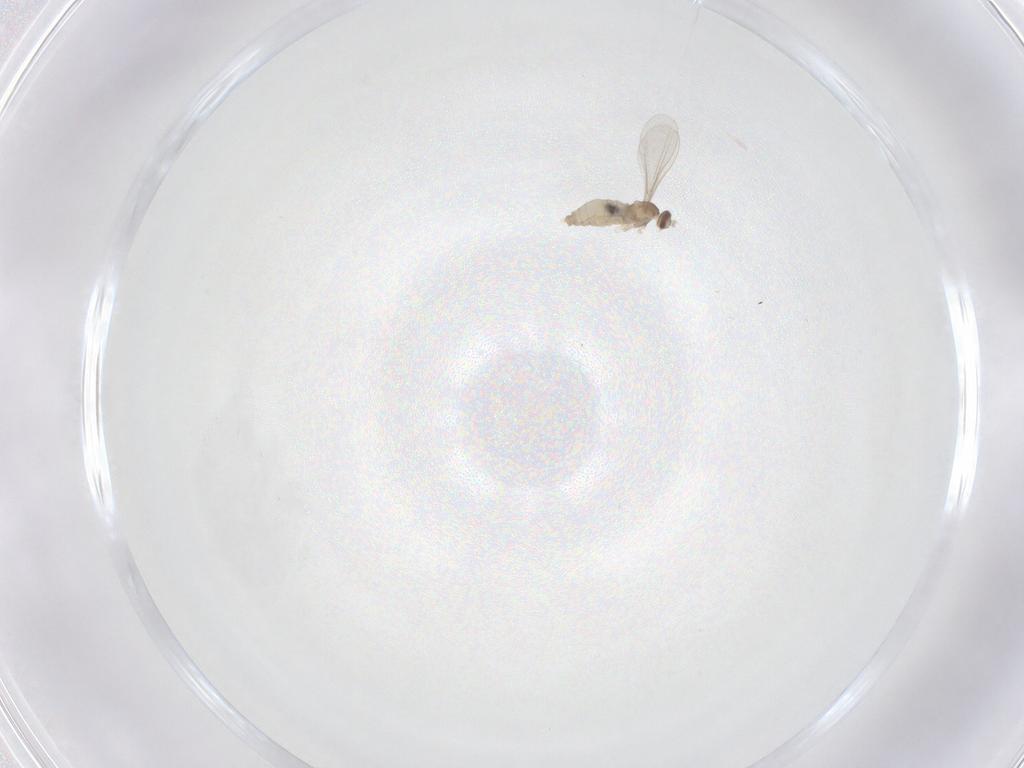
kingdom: Animalia
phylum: Arthropoda
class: Insecta
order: Diptera
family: Cecidomyiidae
